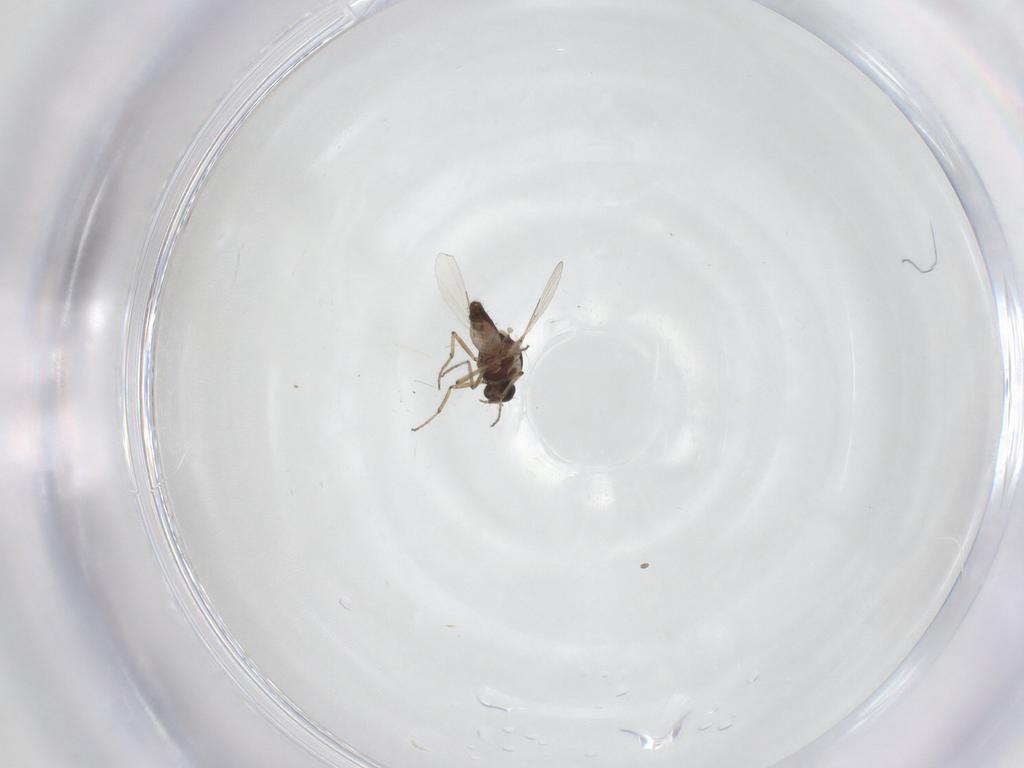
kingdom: Animalia
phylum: Arthropoda
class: Insecta
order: Diptera
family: Ceratopogonidae
